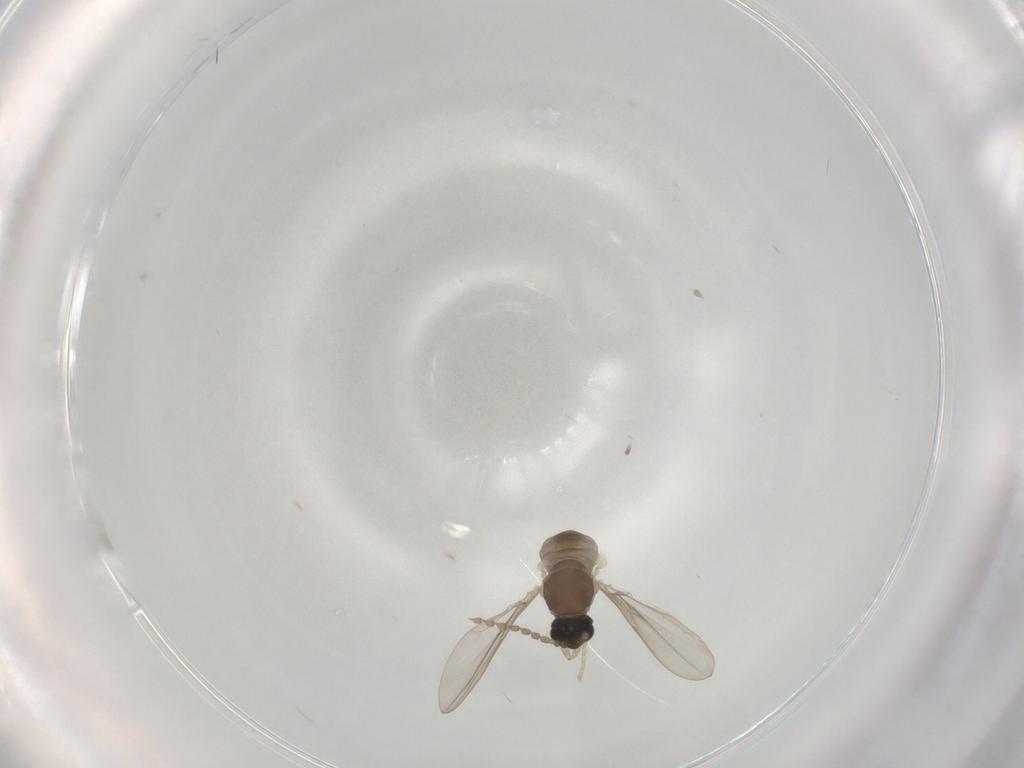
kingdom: Animalia
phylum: Arthropoda
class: Insecta
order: Diptera
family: Cecidomyiidae
